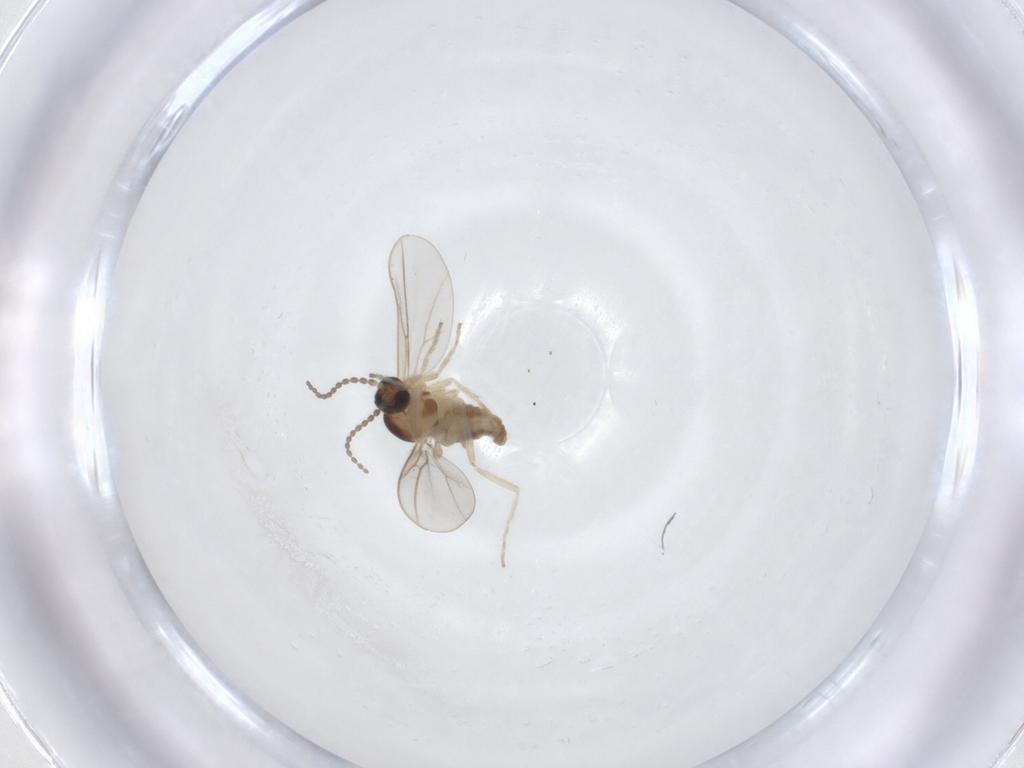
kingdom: Animalia
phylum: Arthropoda
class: Insecta
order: Diptera
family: Cecidomyiidae
